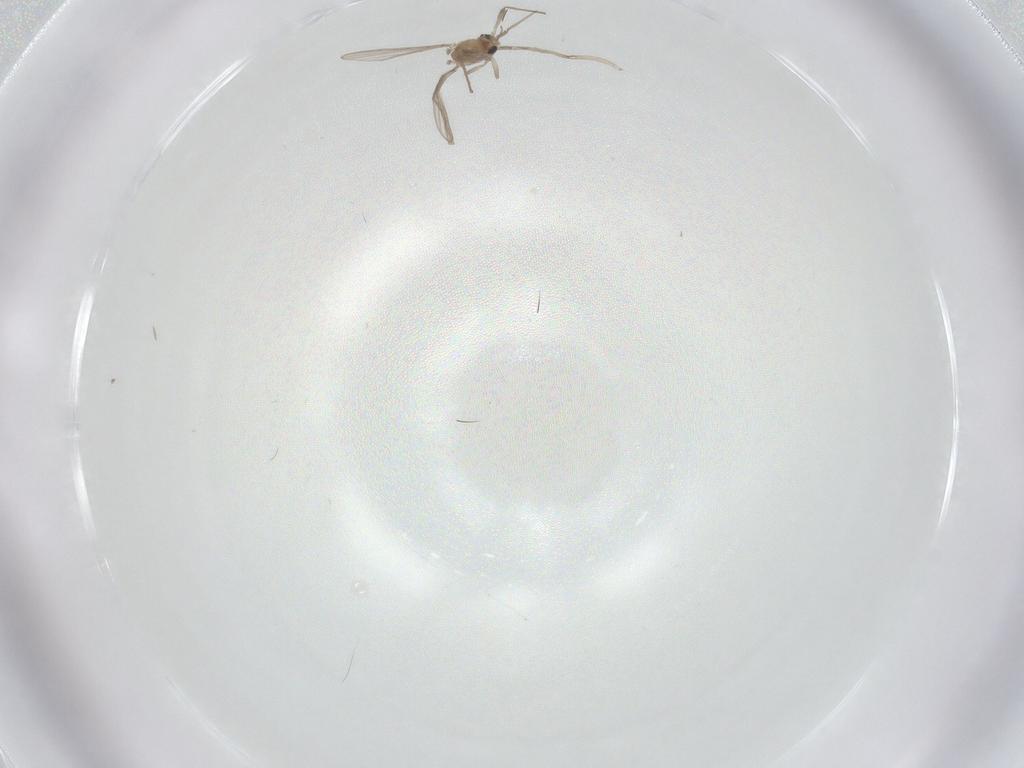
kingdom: Animalia
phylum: Arthropoda
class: Insecta
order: Diptera
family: Chironomidae
